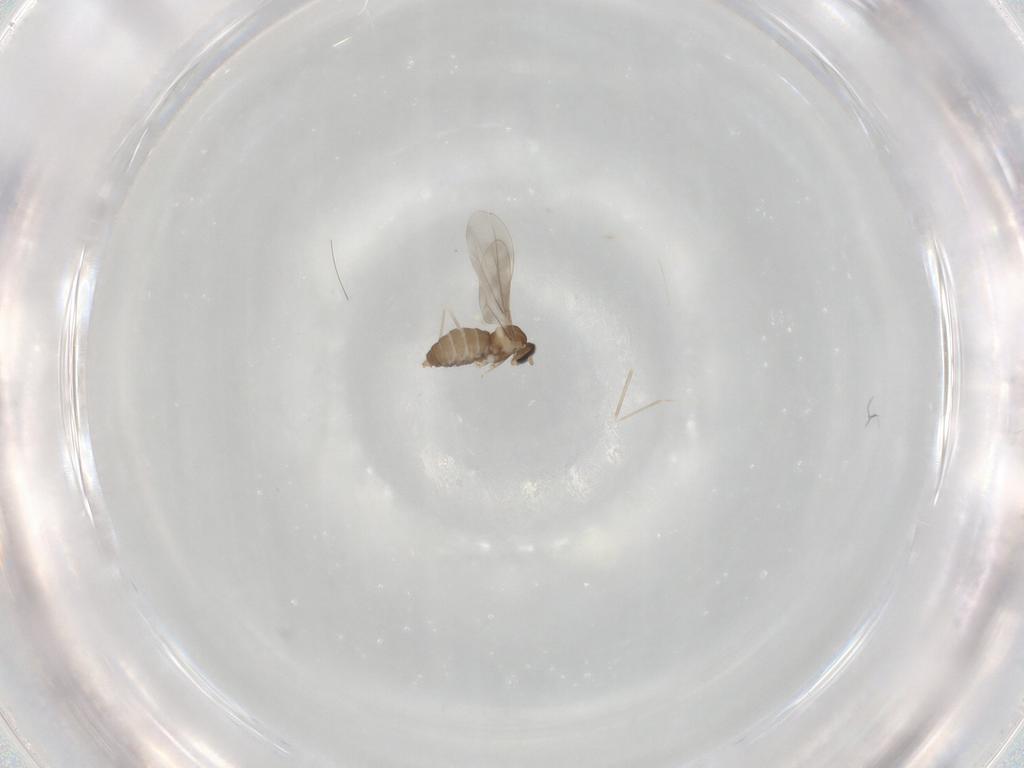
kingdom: Animalia
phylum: Arthropoda
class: Insecta
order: Diptera
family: Cecidomyiidae
